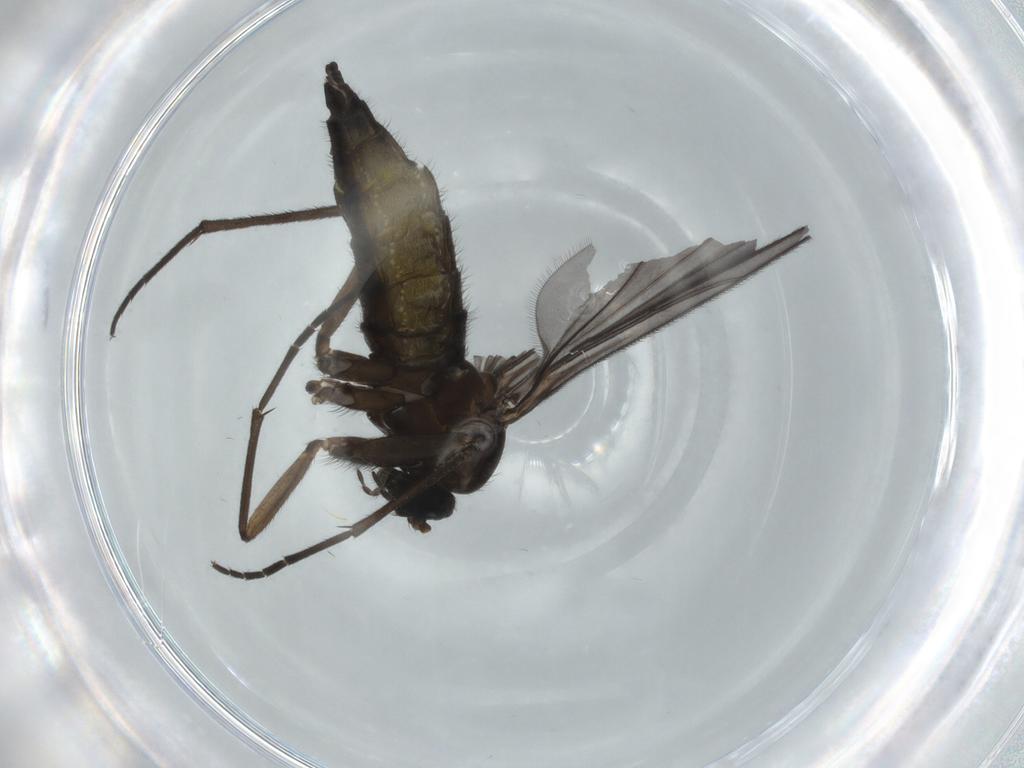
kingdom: Animalia
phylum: Arthropoda
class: Insecta
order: Diptera
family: Sciaridae
